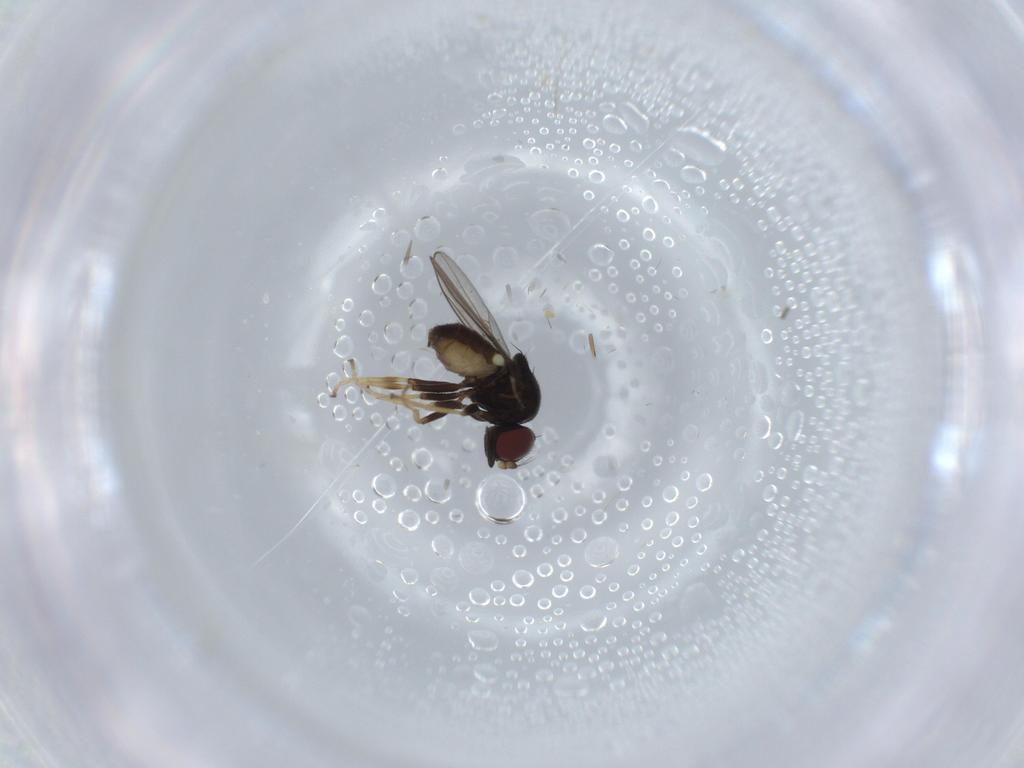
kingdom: Animalia
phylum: Arthropoda
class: Insecta
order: Diptera
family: Chloropidae
